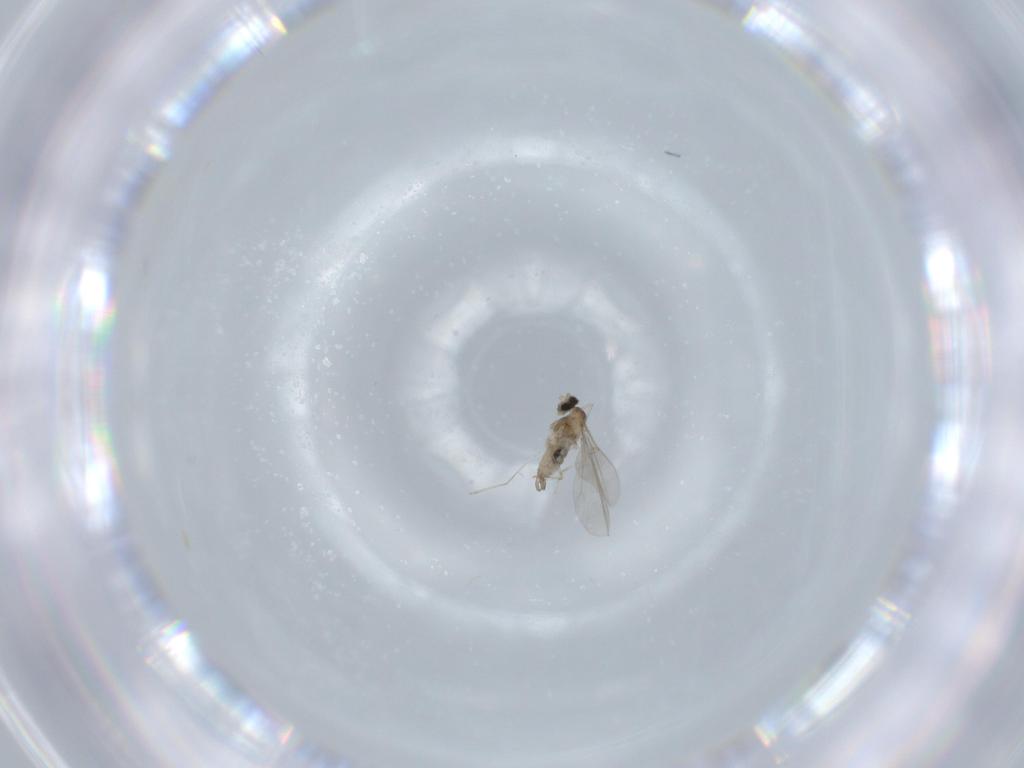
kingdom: Animalia
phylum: Arthropoda
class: Insecta
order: Diptera
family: Cecidomyiidae
